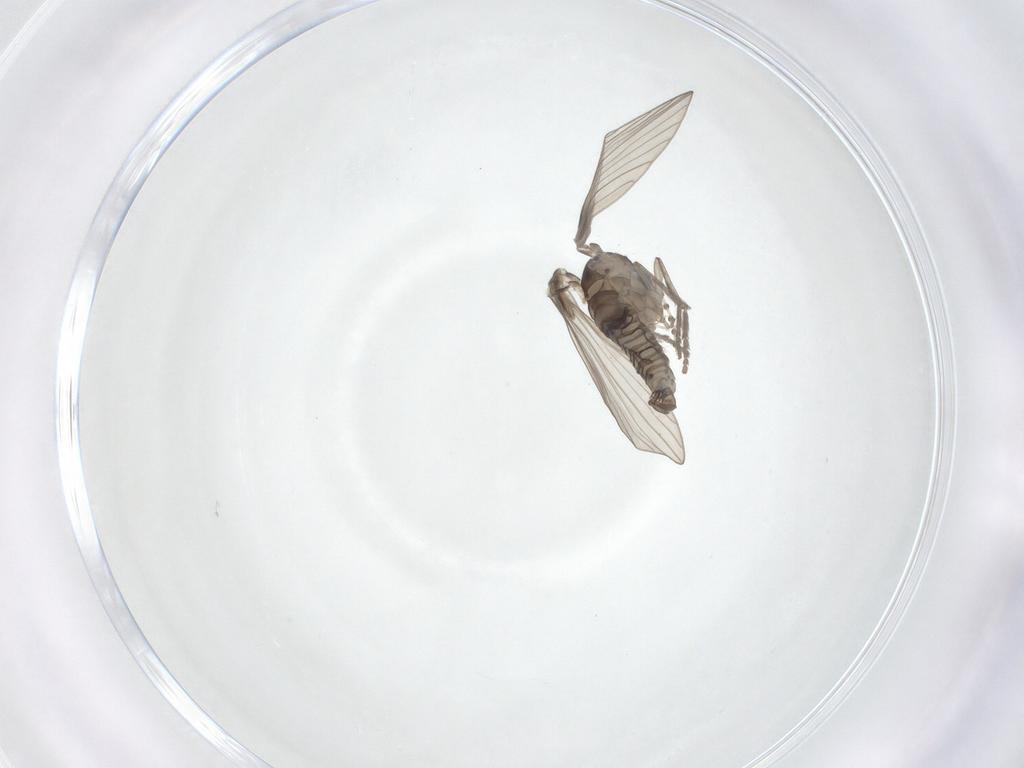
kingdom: Animalia
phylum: Arthropoda
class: Insecta
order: Diptera
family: Psychodidae
